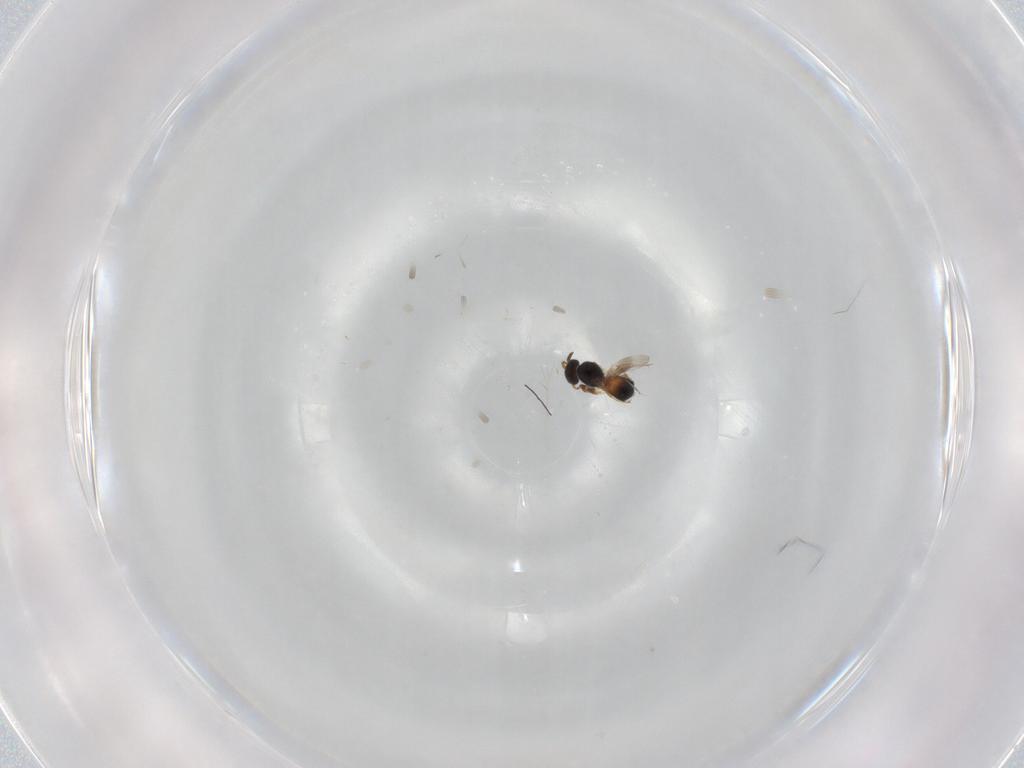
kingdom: Animalia
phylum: Arthropoda
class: Insecta
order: Hymenoptera
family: Trichogrammatidae
